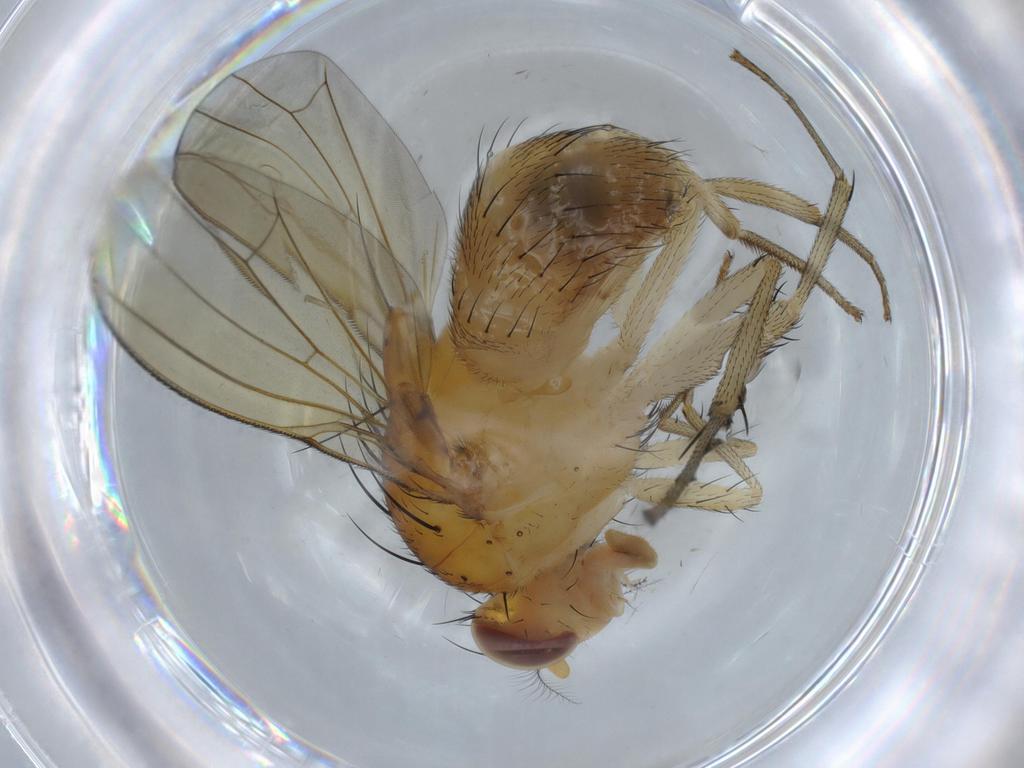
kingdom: Animalia
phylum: Arthropoda
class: Insecta
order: Diptera
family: Cecidomyiidae
